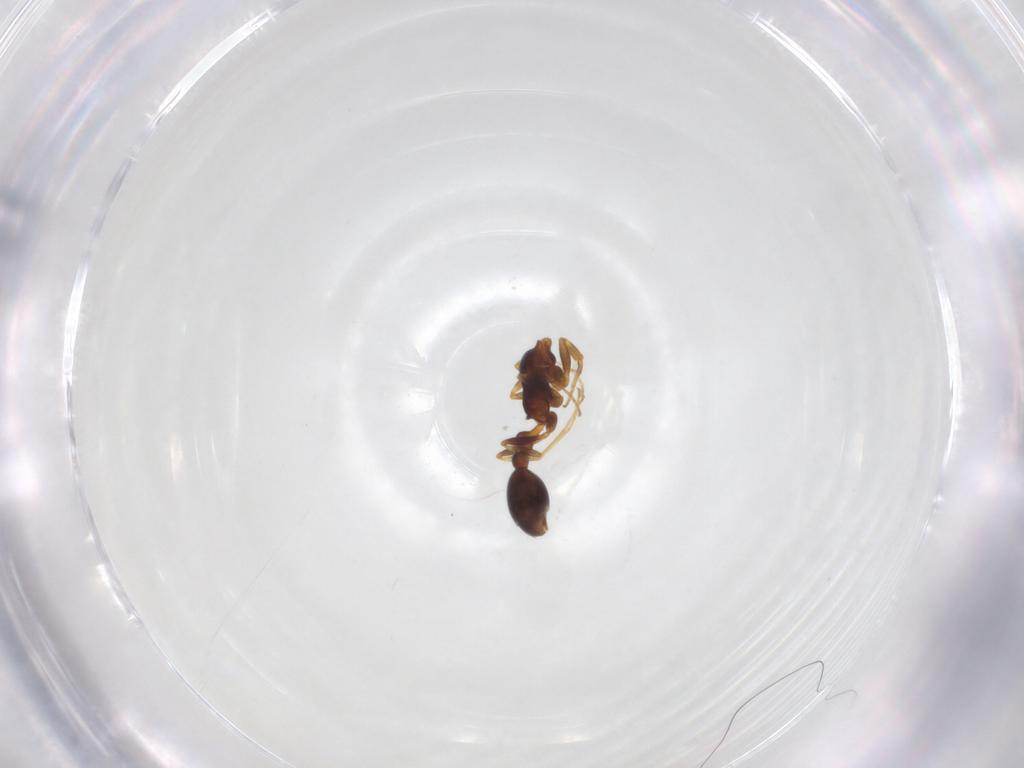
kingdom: Animalia
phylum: Arthropoda
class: Insecta
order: Hymenoptera
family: Formicidae
